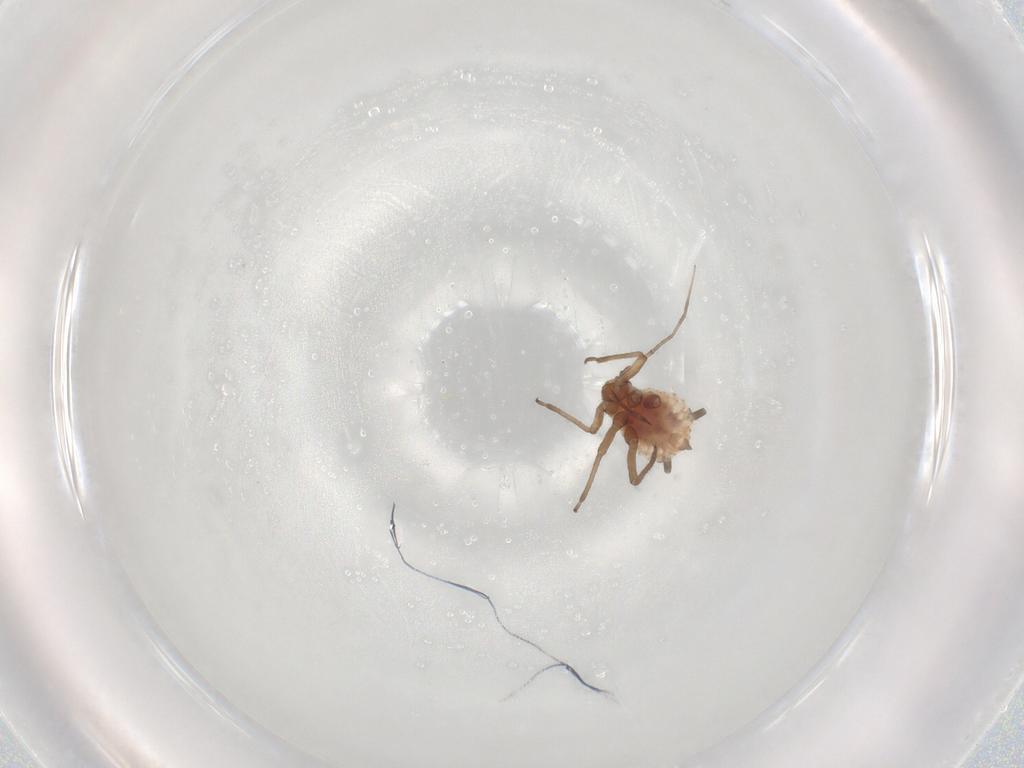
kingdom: Animalia
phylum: Arthropoda
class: Insecta
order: Hemiptera
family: Aphididae
